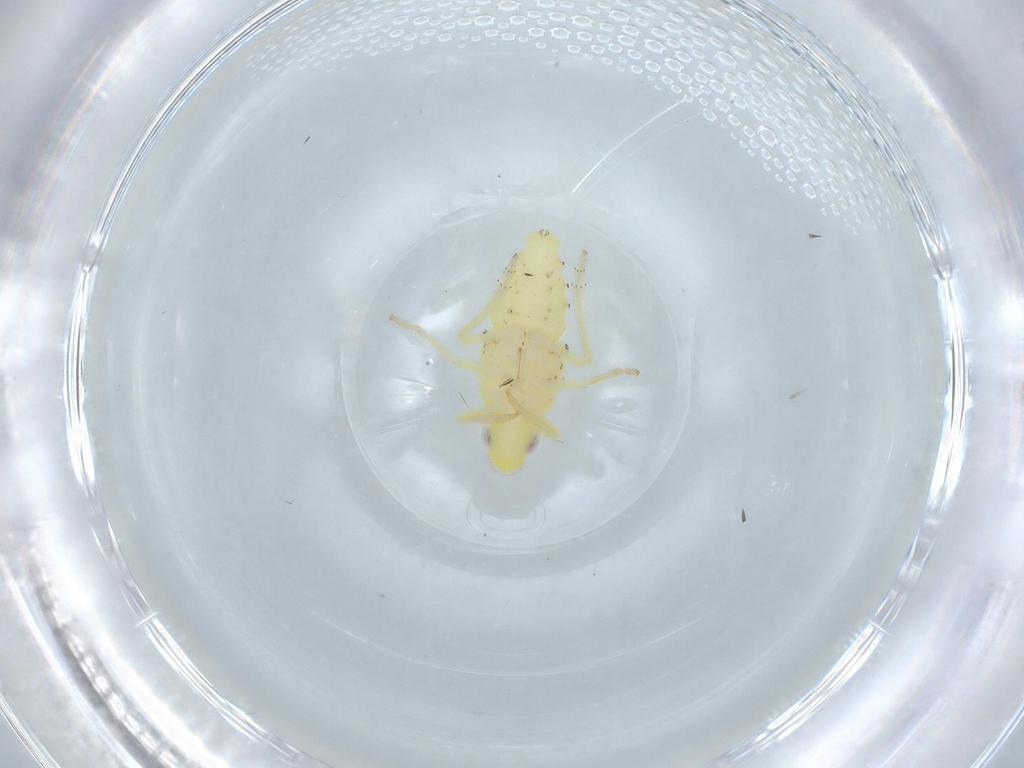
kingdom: Animalia
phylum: Arthropoda
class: Insecta
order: Hemiptera
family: Tropiduchidae
